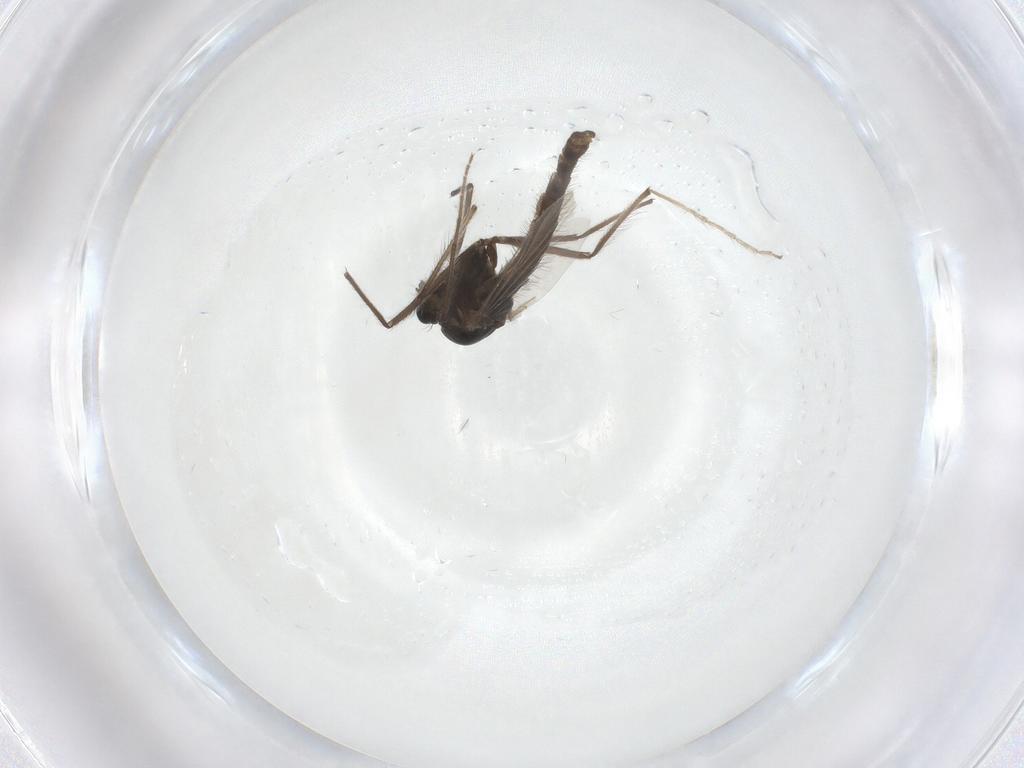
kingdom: Animalia
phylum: Arthropoda
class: Insecta
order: Diptera
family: Chironomidae
